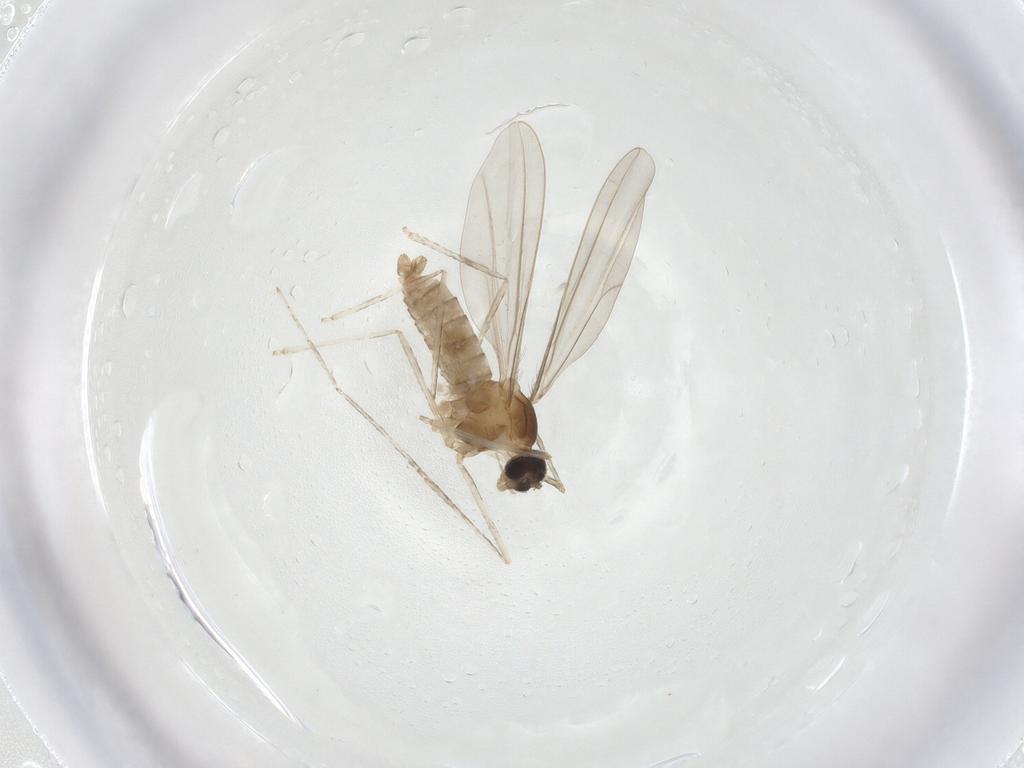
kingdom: Animalia
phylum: Arthropoda
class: Insecta
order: Diptera
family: Cecidomyiidae
